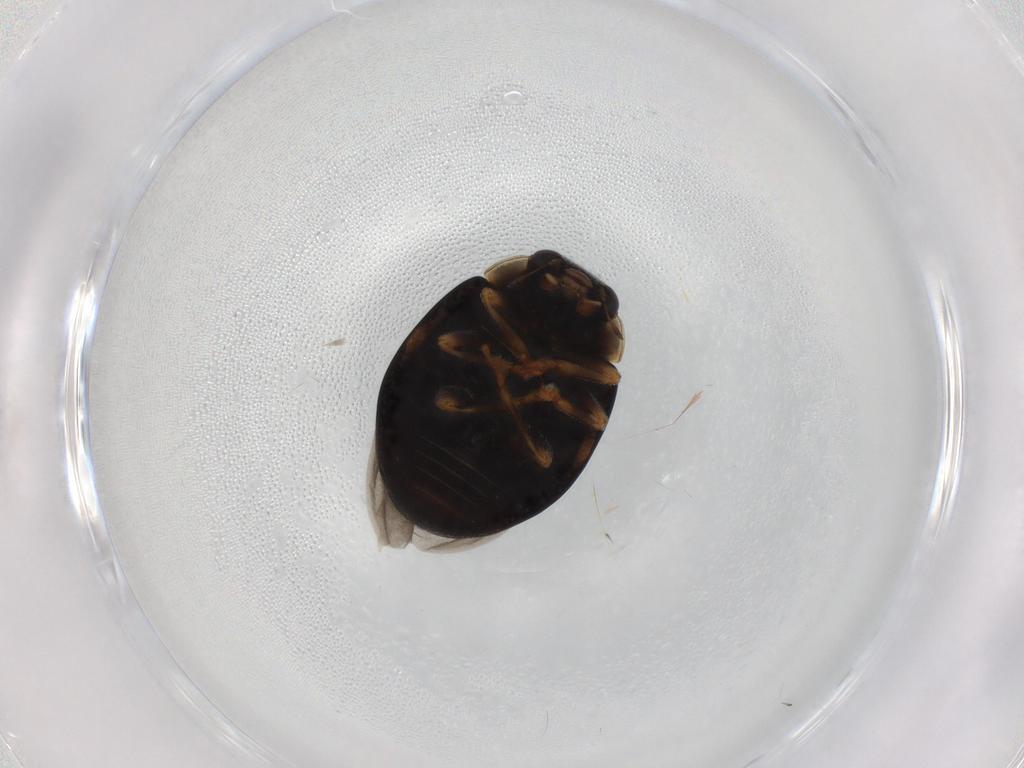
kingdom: Animalia
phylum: Arthropoda
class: Insecta
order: Coleoptera
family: Coccinellidae
